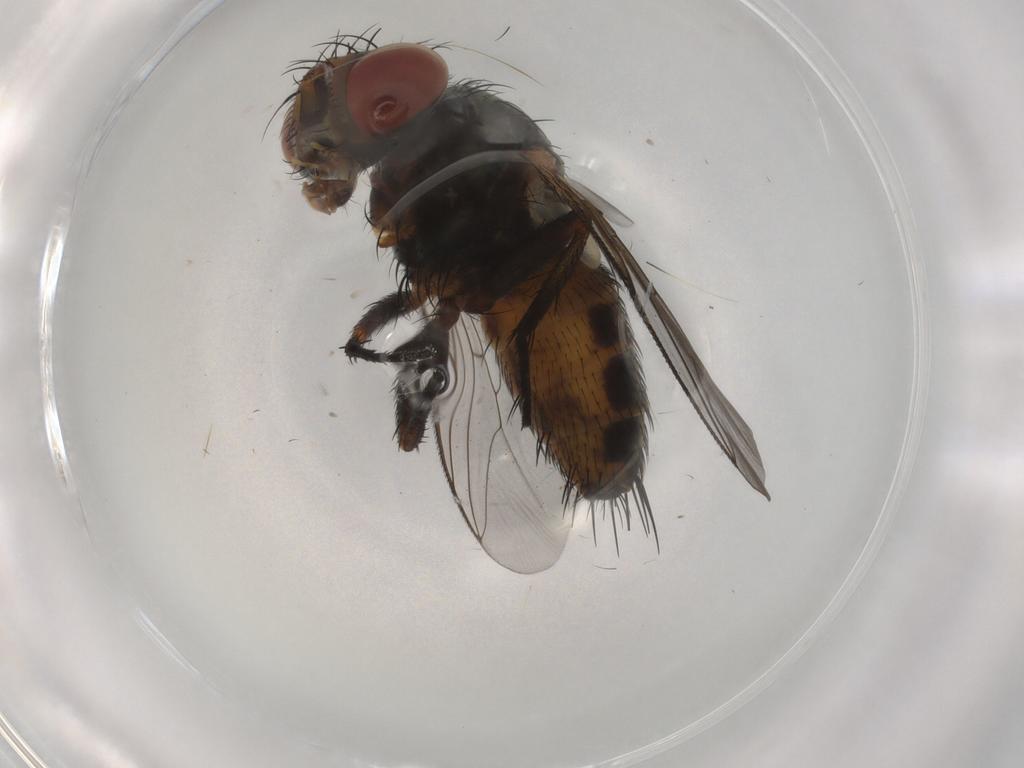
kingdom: Animalia
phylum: Arthropoda
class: Insecta
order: Diptera
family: Sarcophagidae
